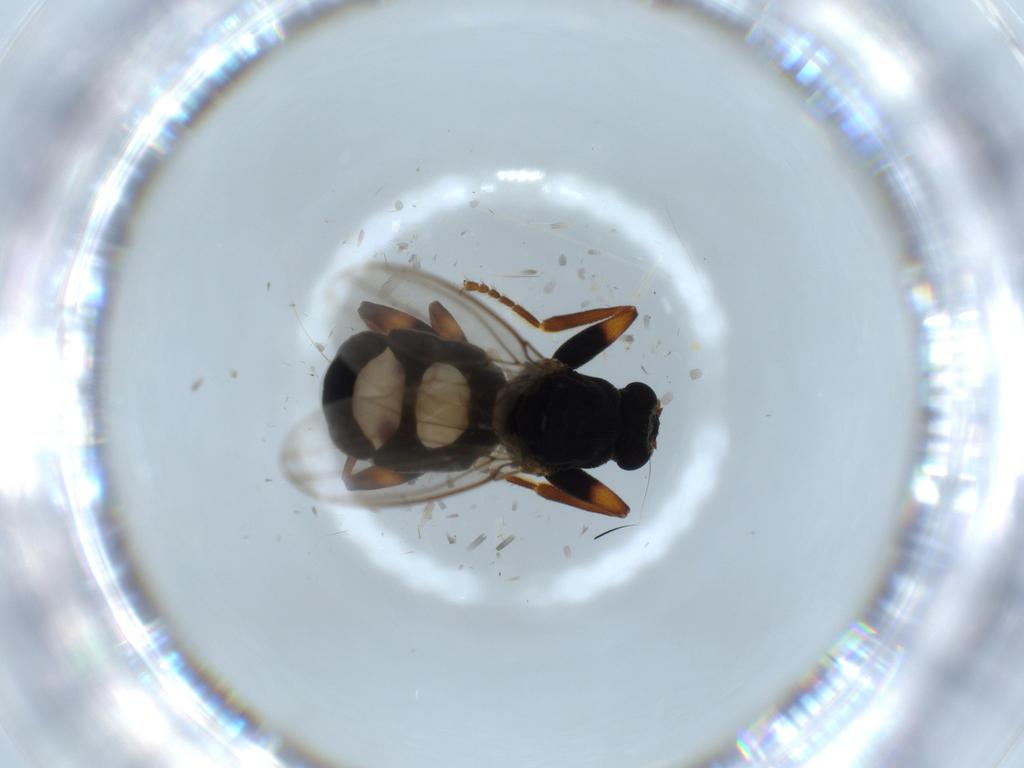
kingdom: Animalia
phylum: Arthropoda
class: Insecta
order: Diptera
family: Sphaeroceridae
